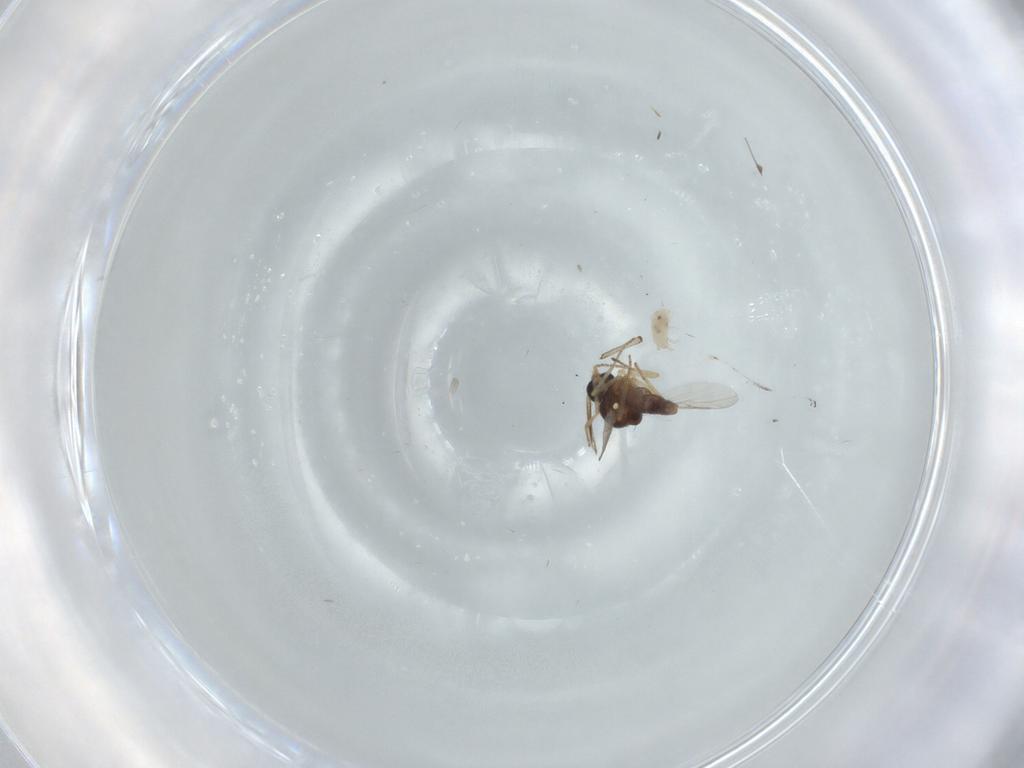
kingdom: Animalia
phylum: Arthropoda
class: Insecta
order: Diptera
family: Ceratopogonidae
